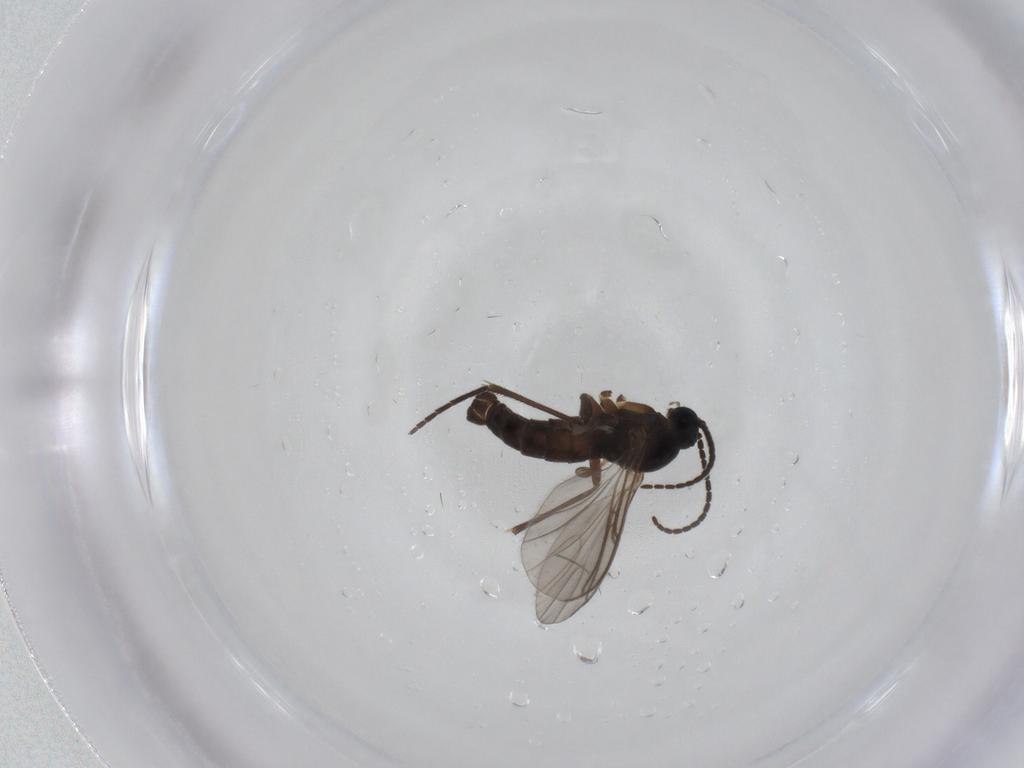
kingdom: Animalia
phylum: Arthropoda
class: Insecta
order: Diptera
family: Sciaridae
